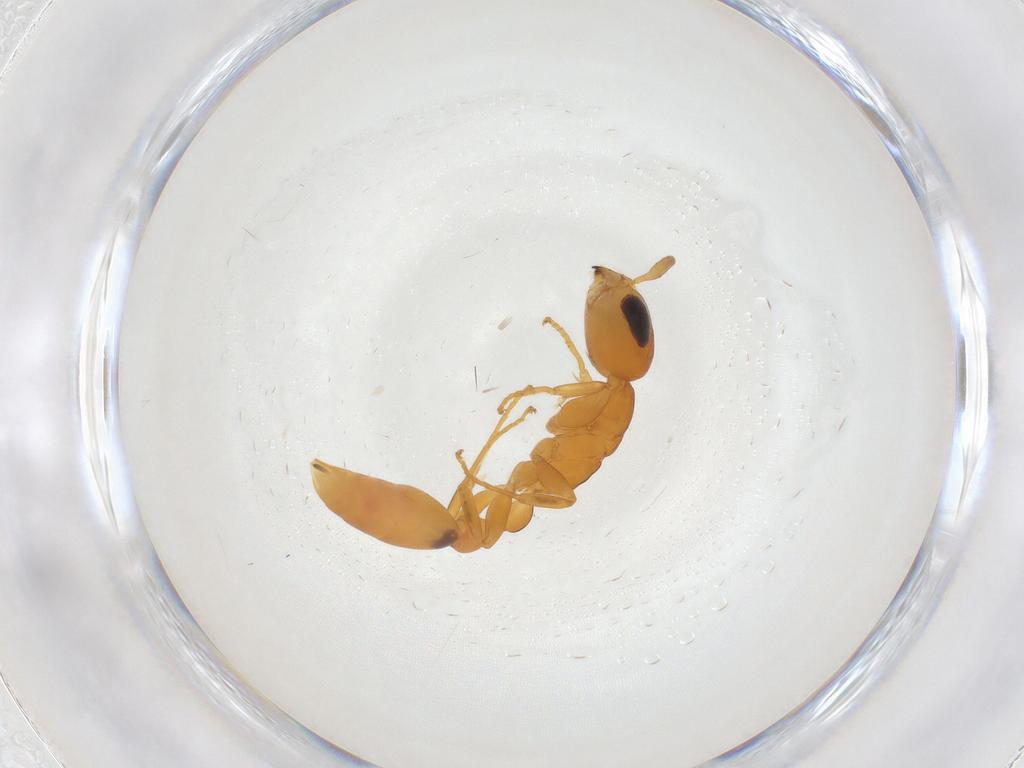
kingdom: Animalia
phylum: Arthropoda
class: Insecta
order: Hymenoptera
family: Formicidae
